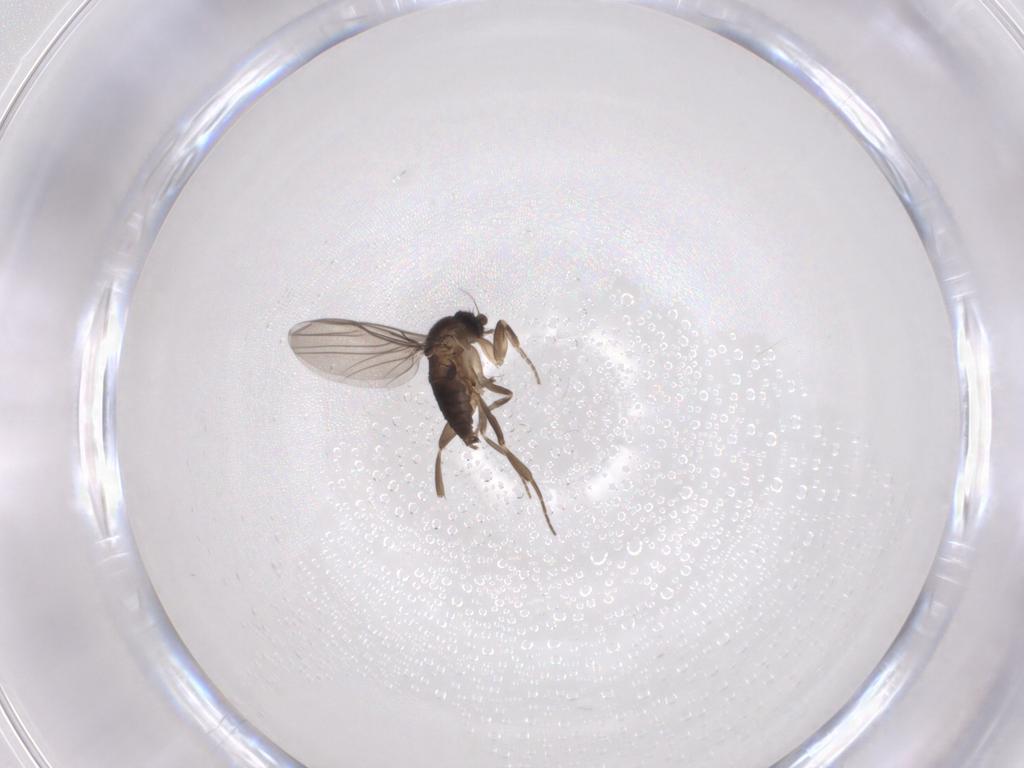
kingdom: Animalia
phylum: Arthropoda
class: Insecta
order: Diptera
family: Phoridae
